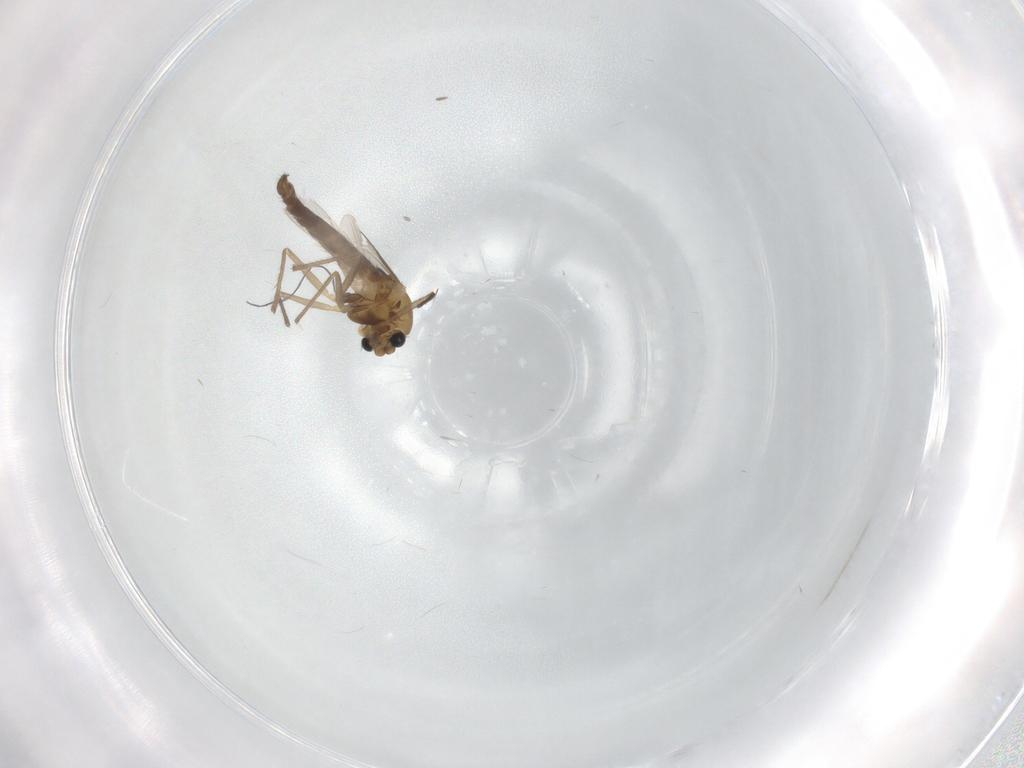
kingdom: Animalia
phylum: Arthropoda
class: Insecta
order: Diptera
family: Chironomidae
